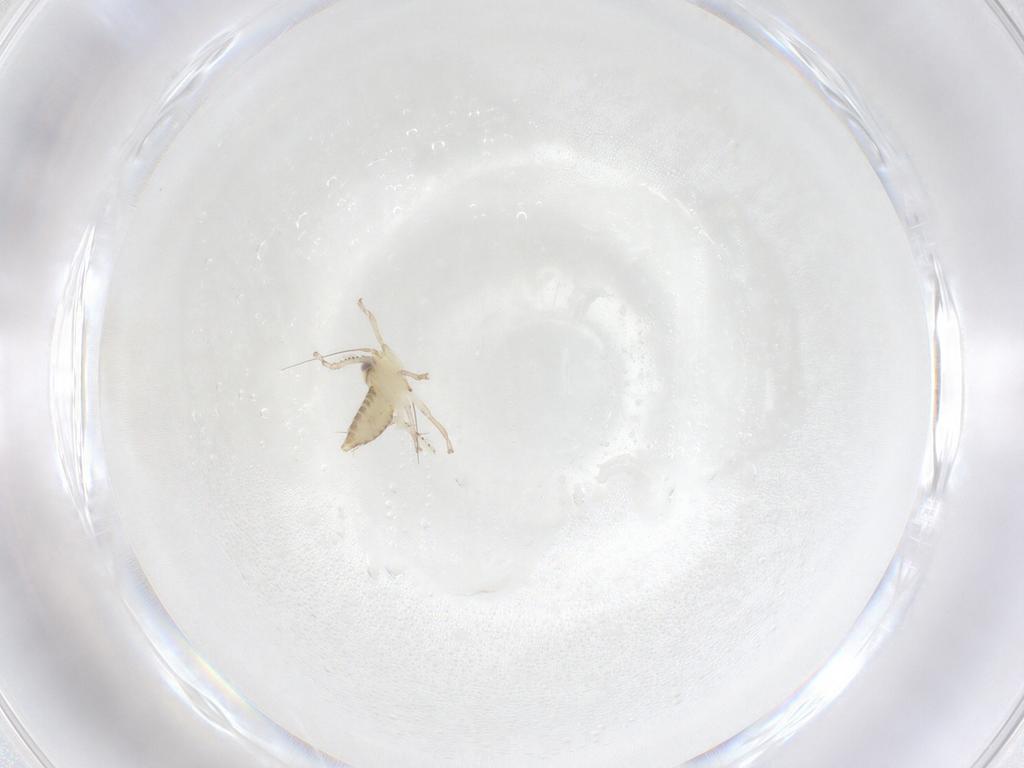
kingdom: Animalia
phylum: Arthropoda
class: Insecta
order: Hemiptera
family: Cicadellidae
